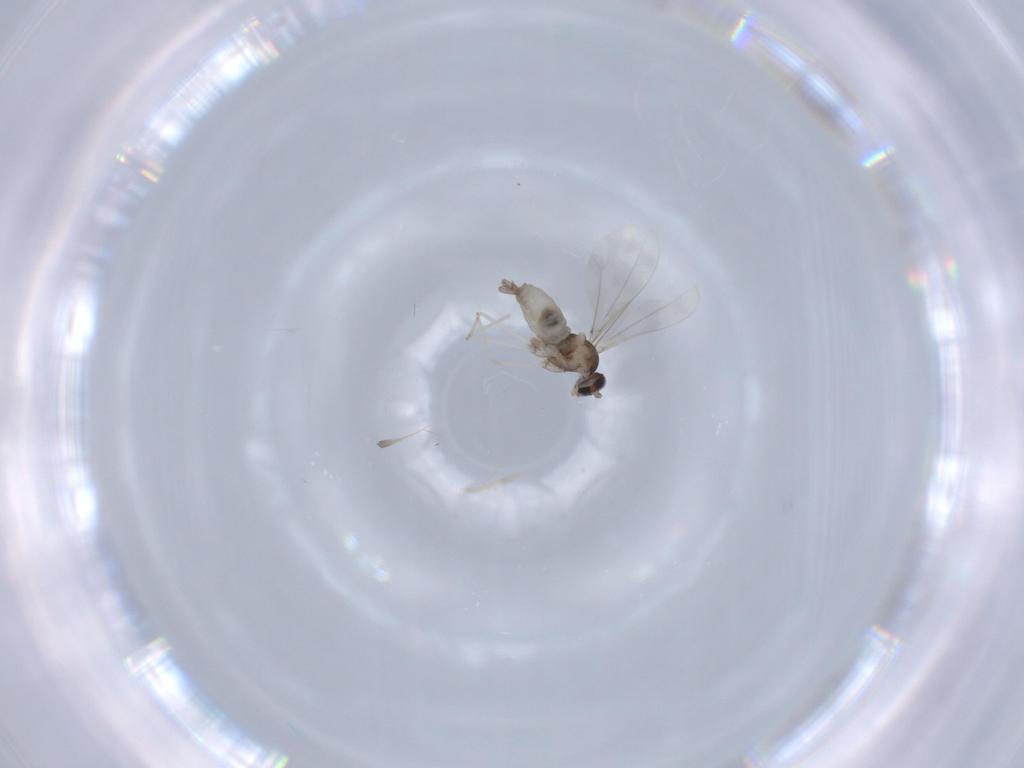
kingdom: Animalia
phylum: Arthropoda
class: Insecta
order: Diptera
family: Cecidomyiidae
